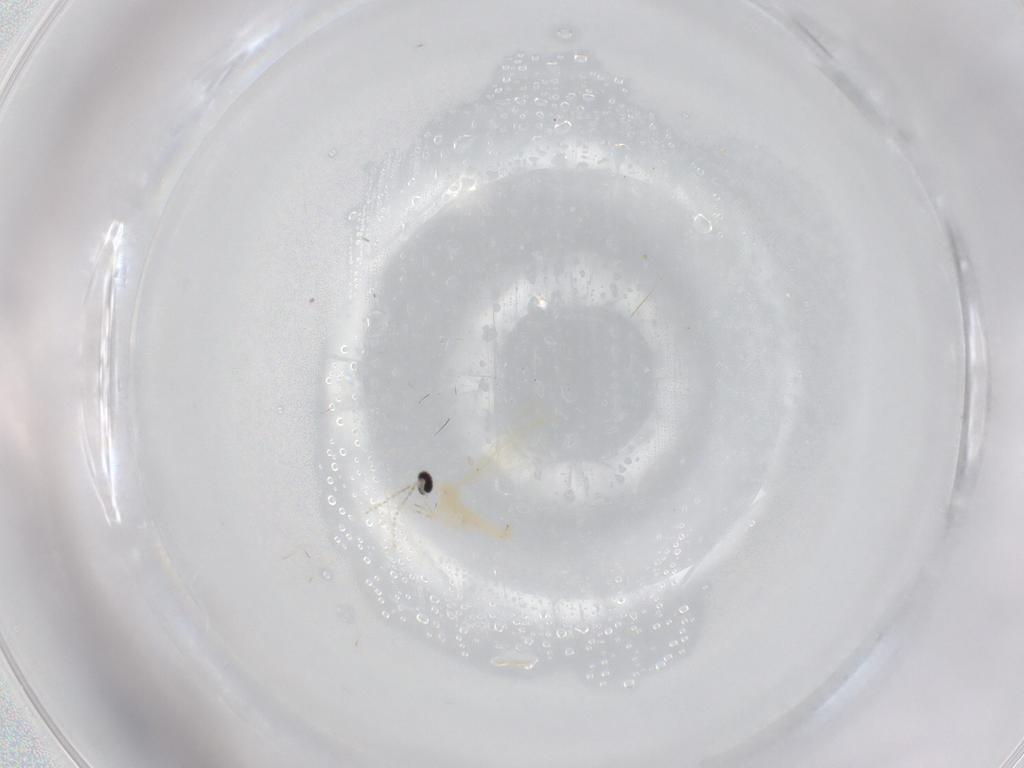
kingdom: Animalia
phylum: Arthropoda
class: Insecta
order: Diptera
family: Cecidomyiidae
